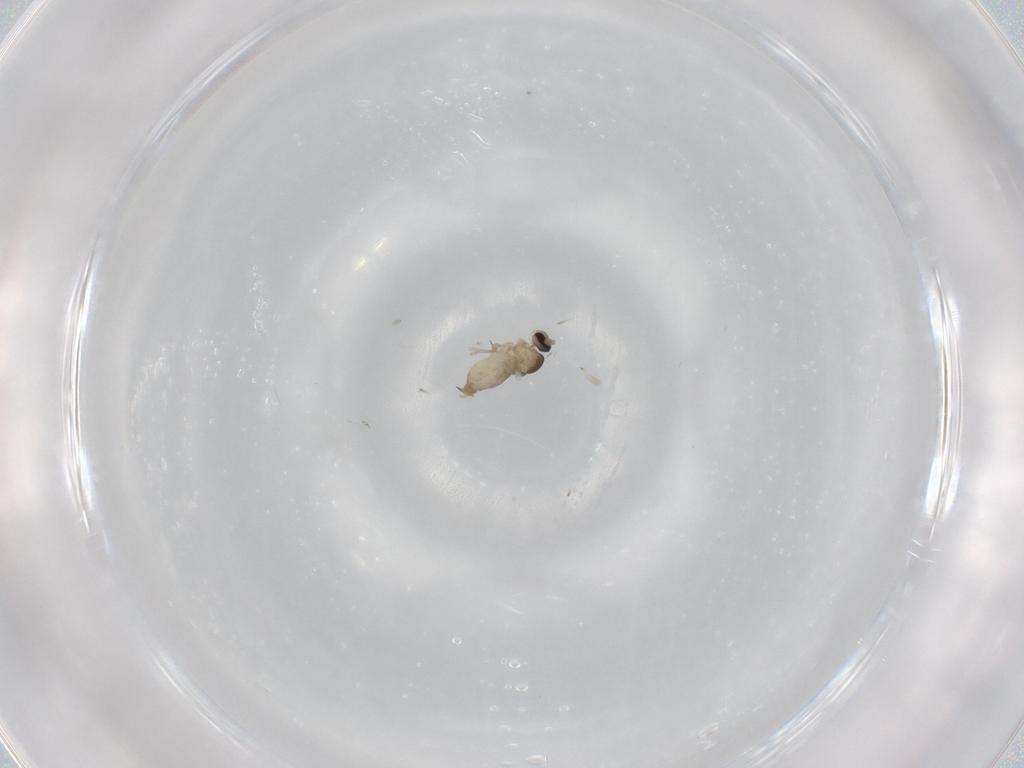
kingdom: Animalia
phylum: Arthropoda
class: Insecta
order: Diptera
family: Cecidomyiidae
